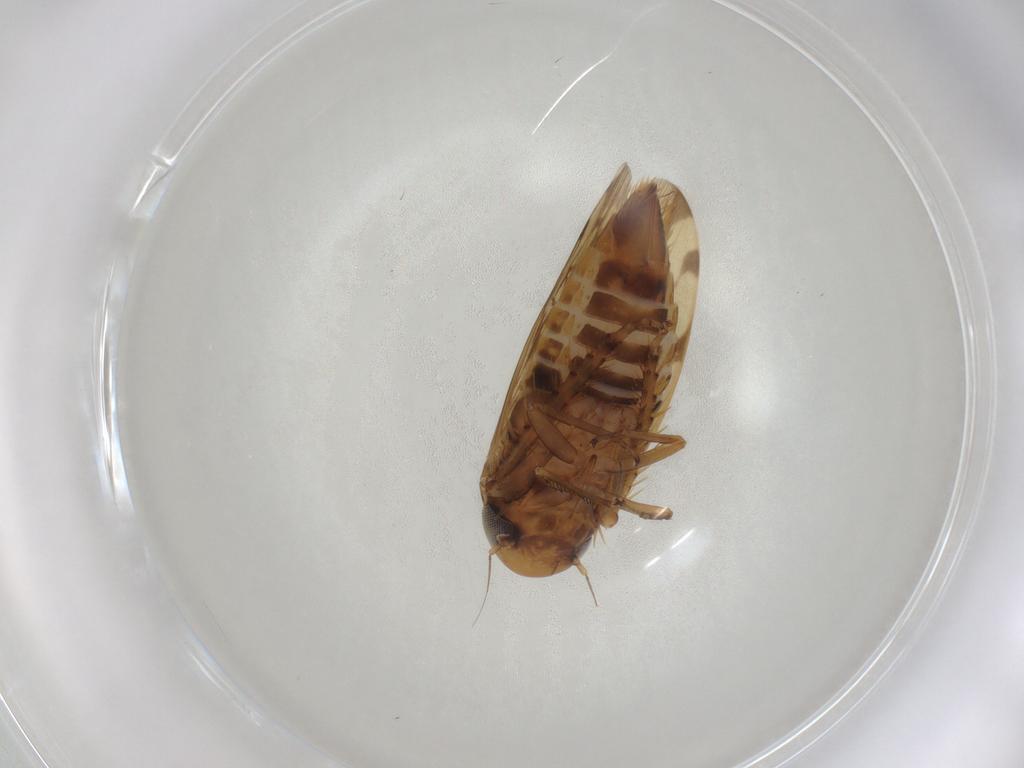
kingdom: Animalia
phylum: Arthropoda
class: Insecta
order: Hemiptera
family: Cicadellidae
